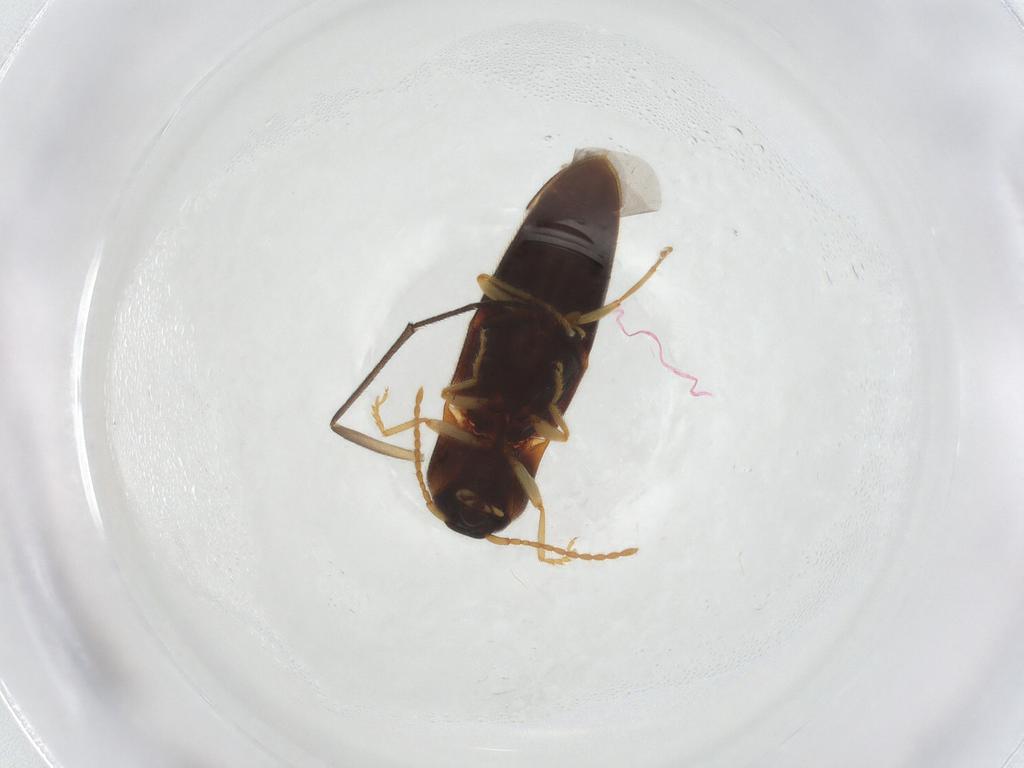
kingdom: Animalia
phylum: Arthropoda
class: Insecta
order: Coleoptera
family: Elateridae
